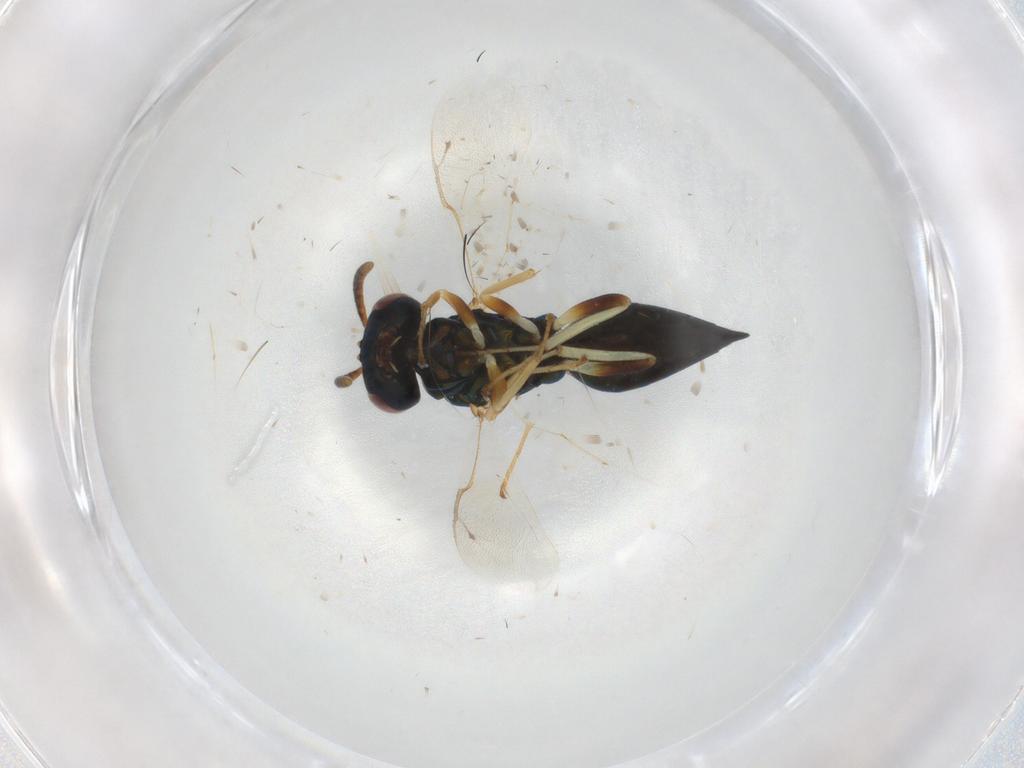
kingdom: Animalia
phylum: Arthropoda
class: Insecta
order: Hymenoptera
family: Pteromalidae
